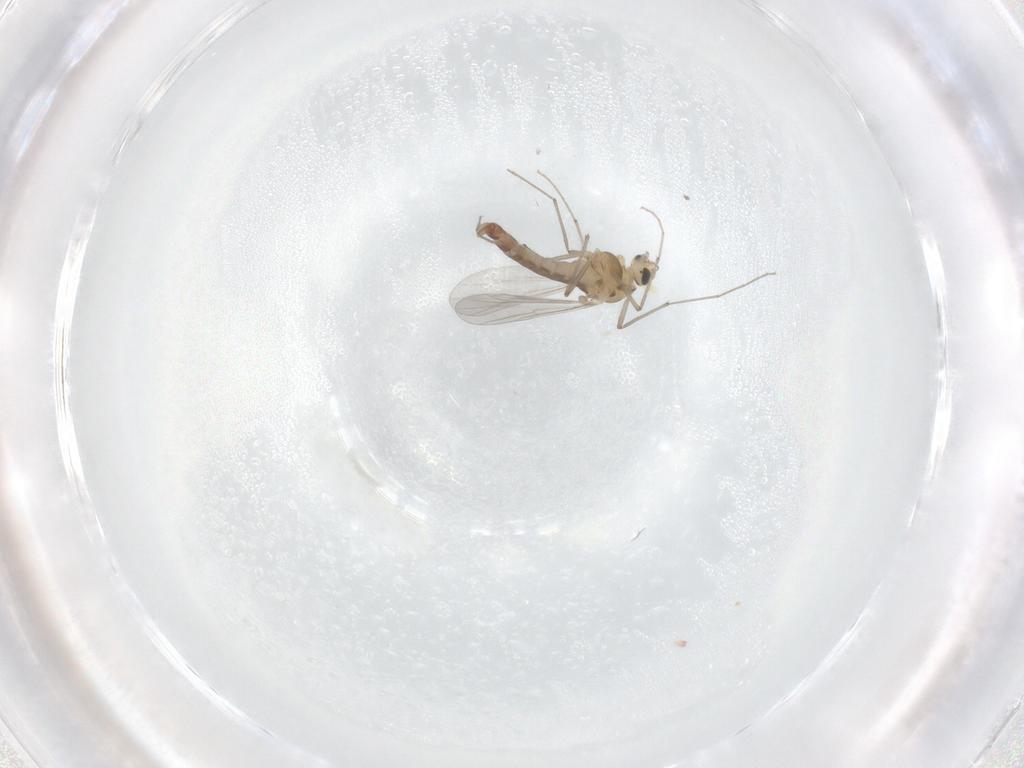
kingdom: Animalia
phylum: Arthropoda
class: Insecta
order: Diptera
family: Chironomidae
